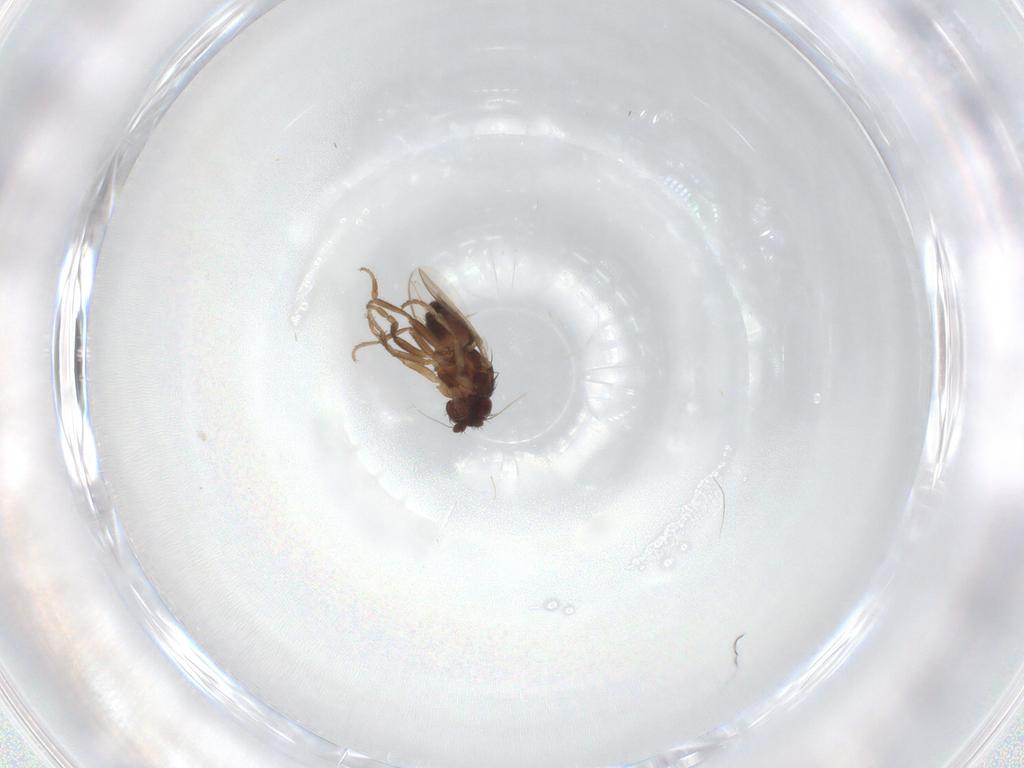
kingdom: Animalia
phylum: Arthropoda
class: Insecta
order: Diptera
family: Sphaeroceridae
